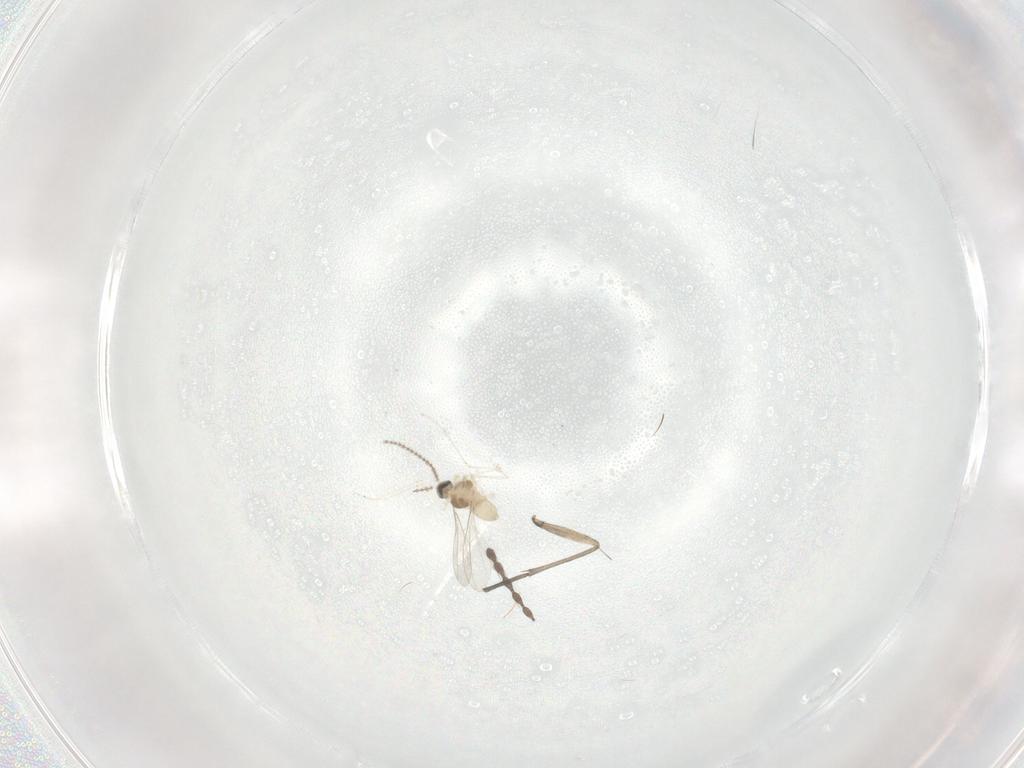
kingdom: Animalia
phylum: Arthropoda
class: Insecta
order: Diptera
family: Sciaridae
